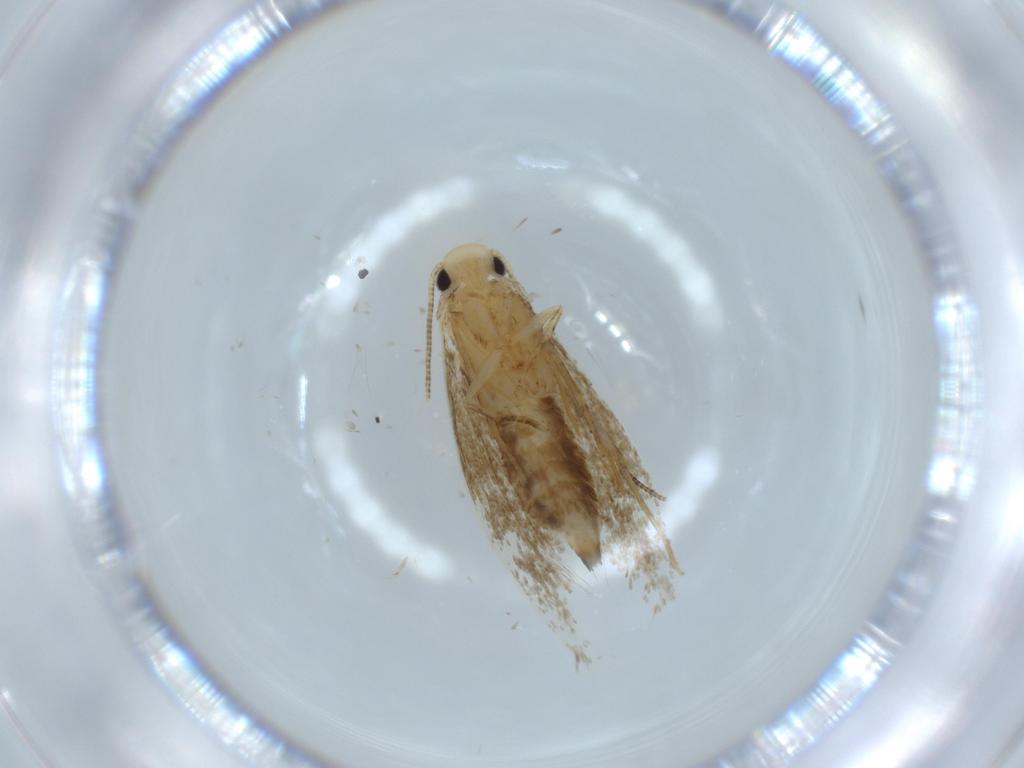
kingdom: Animalia
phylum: Arthropoda
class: Insecta
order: Lepidoptera
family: Tineidae
